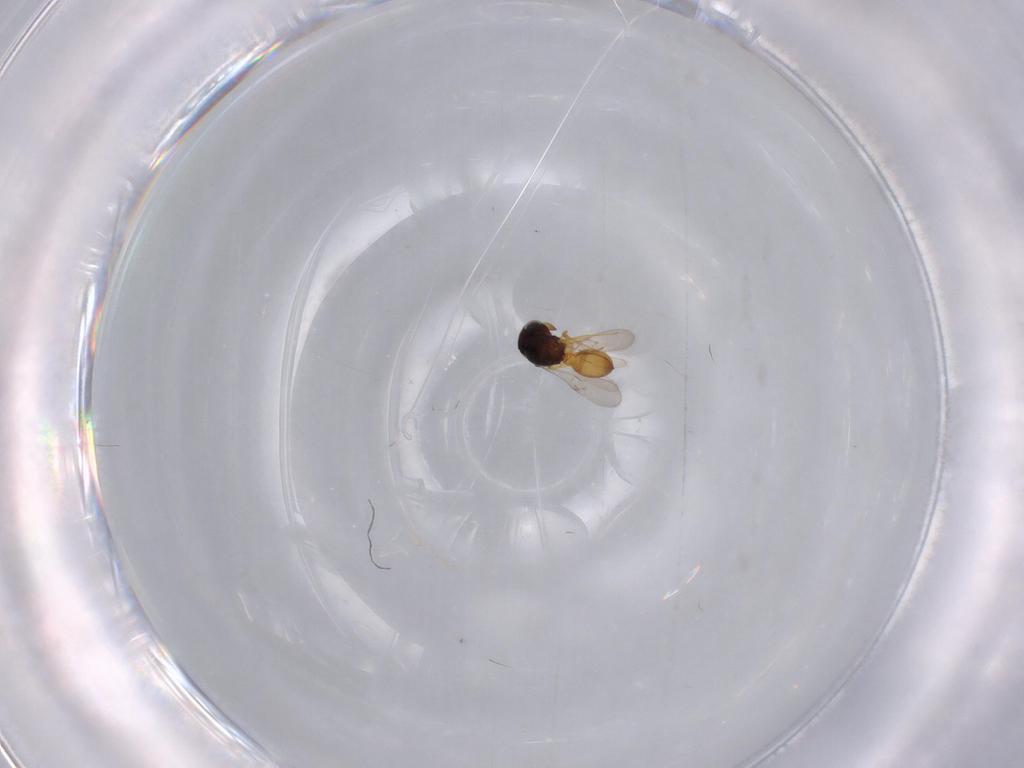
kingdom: Animalia
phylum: Arthropoda
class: Insecta
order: Hymenoptera
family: Scelionidae
